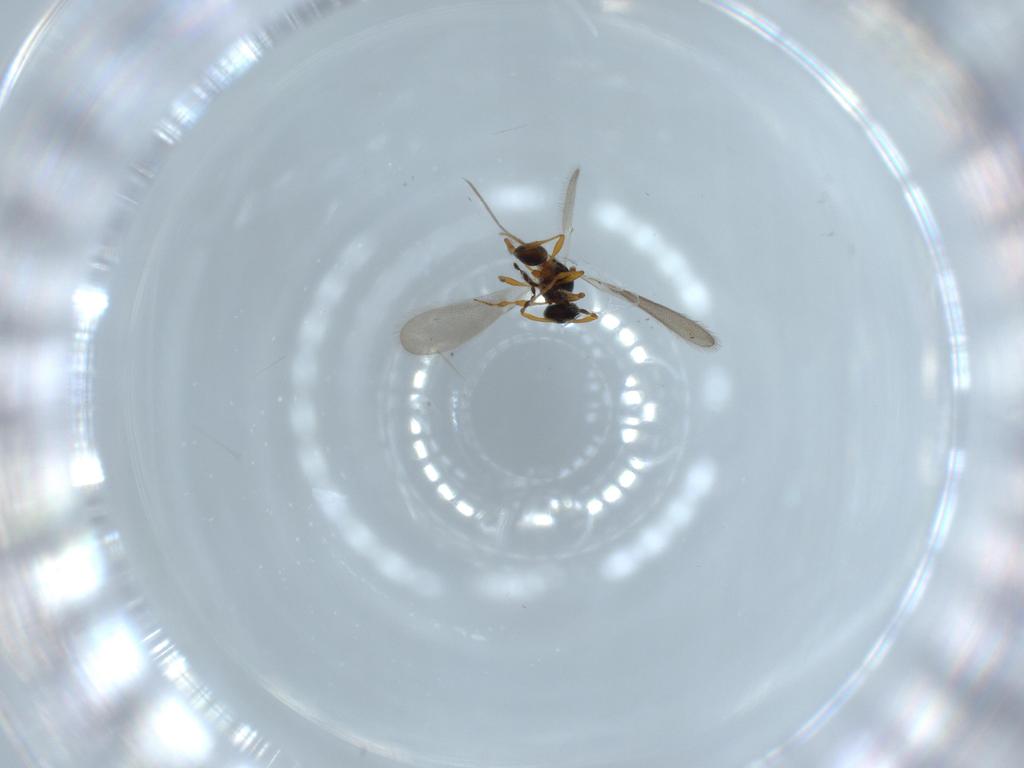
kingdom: Animalia
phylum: Arthropoda
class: Insecta
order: Hymenoptera
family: Platygastridae
